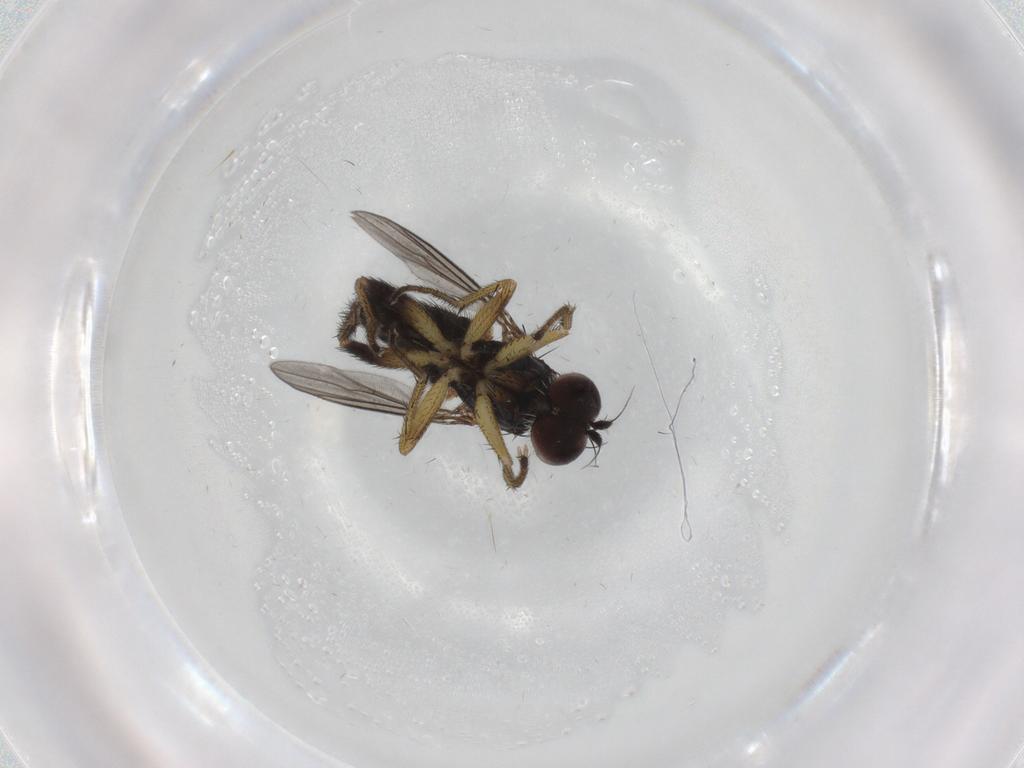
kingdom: Animalia
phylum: Arthropoda
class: Insecta
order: Diptera
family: Dolichopodidae
